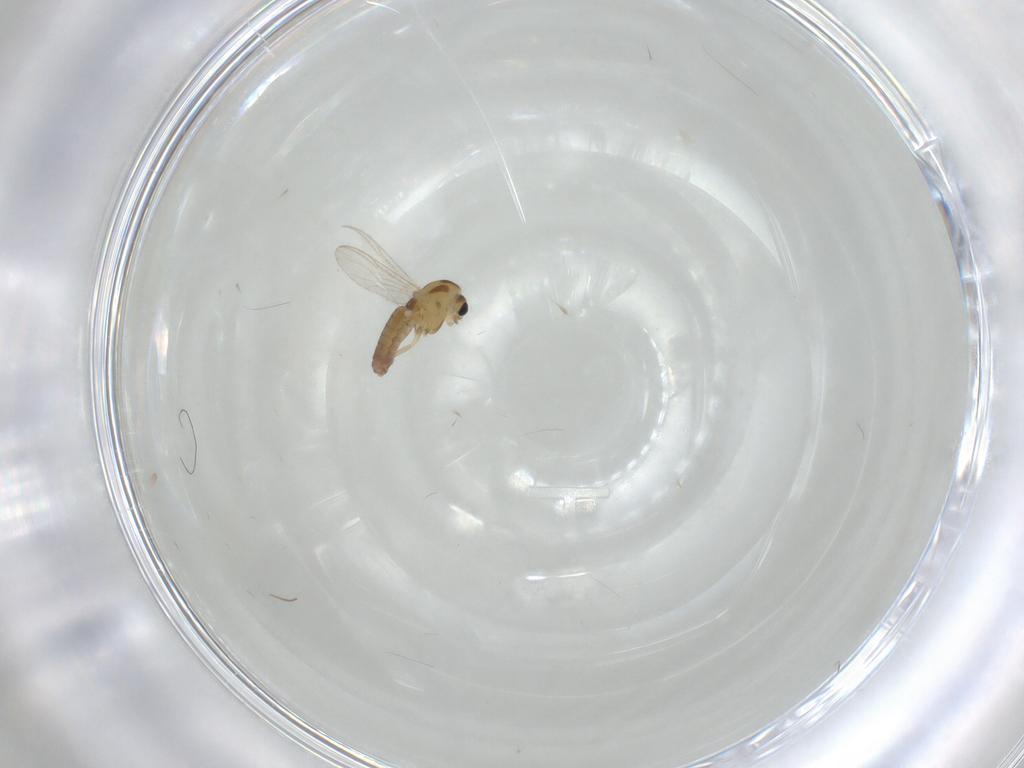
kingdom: Animalia
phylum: Arthropoda
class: Insecta
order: Diptera
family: Chironomidae
